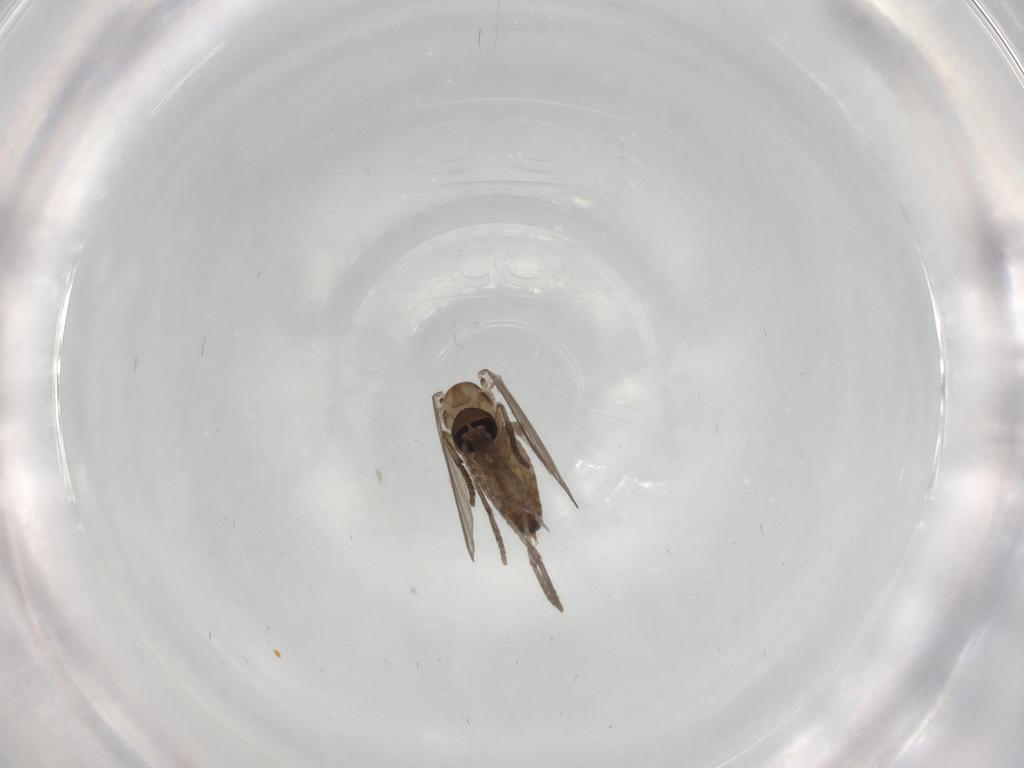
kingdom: Animalia
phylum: Arthropoda
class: Insecta
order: Diptera
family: Psychodidae
